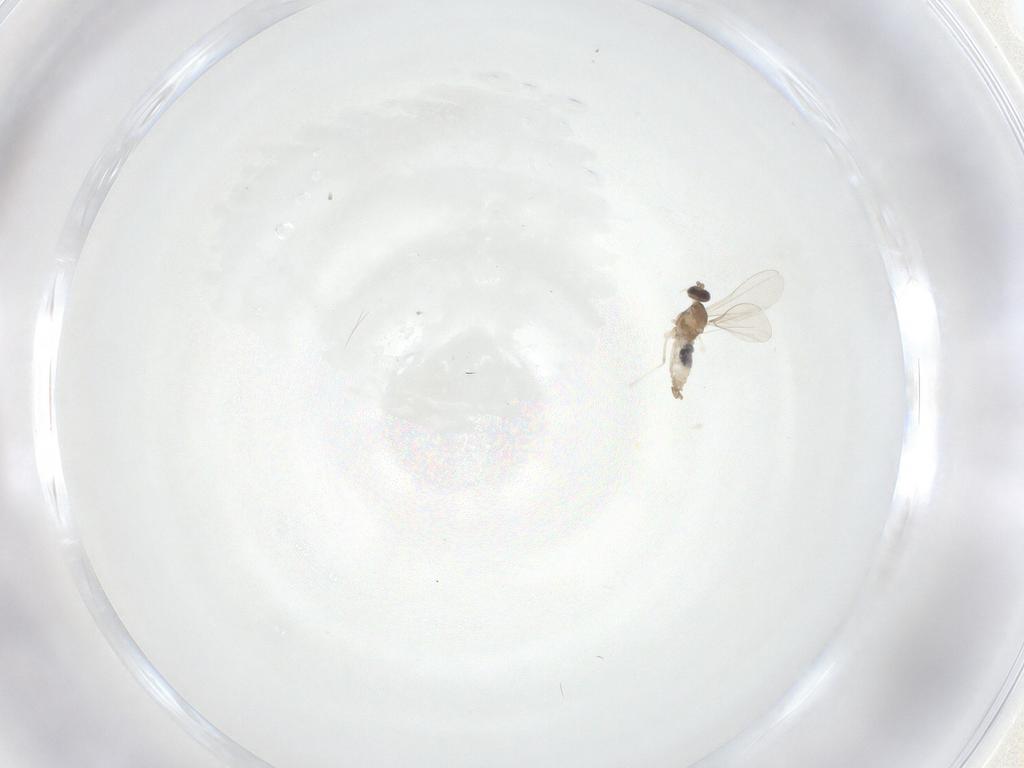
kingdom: Animalia
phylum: Arthropoda
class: Insecta
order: Diptera
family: Cecidomyiidae
